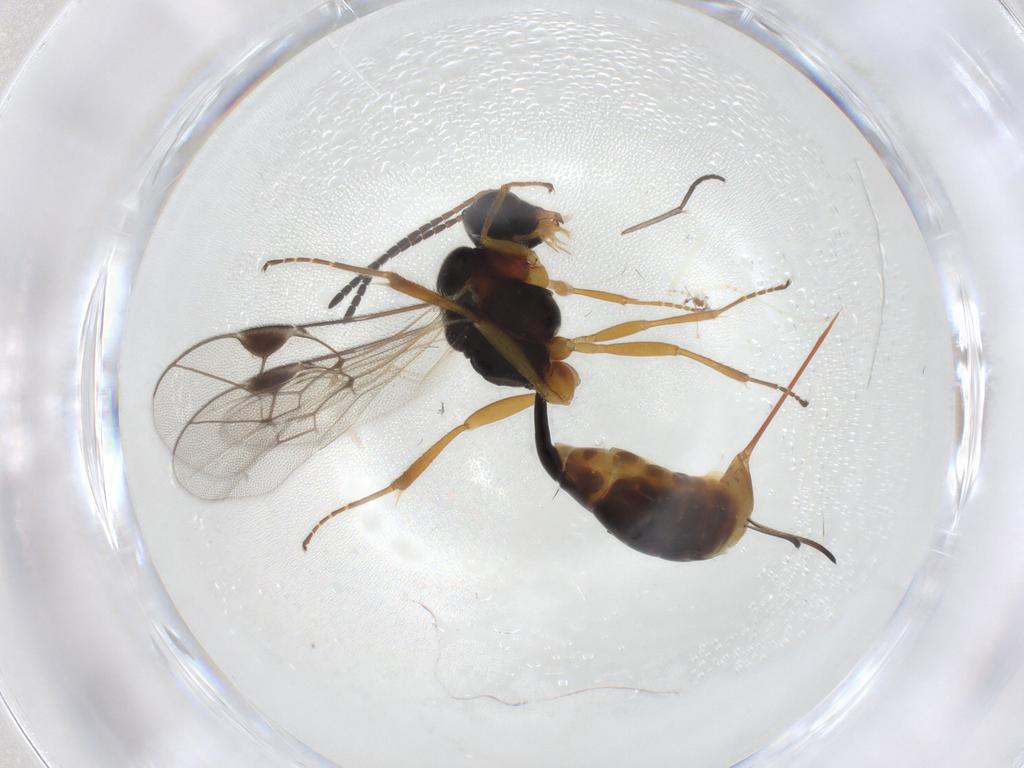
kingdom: Animalia
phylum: Arthropoda
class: Insecta
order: Hymenoptera
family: Ichneumonidae
